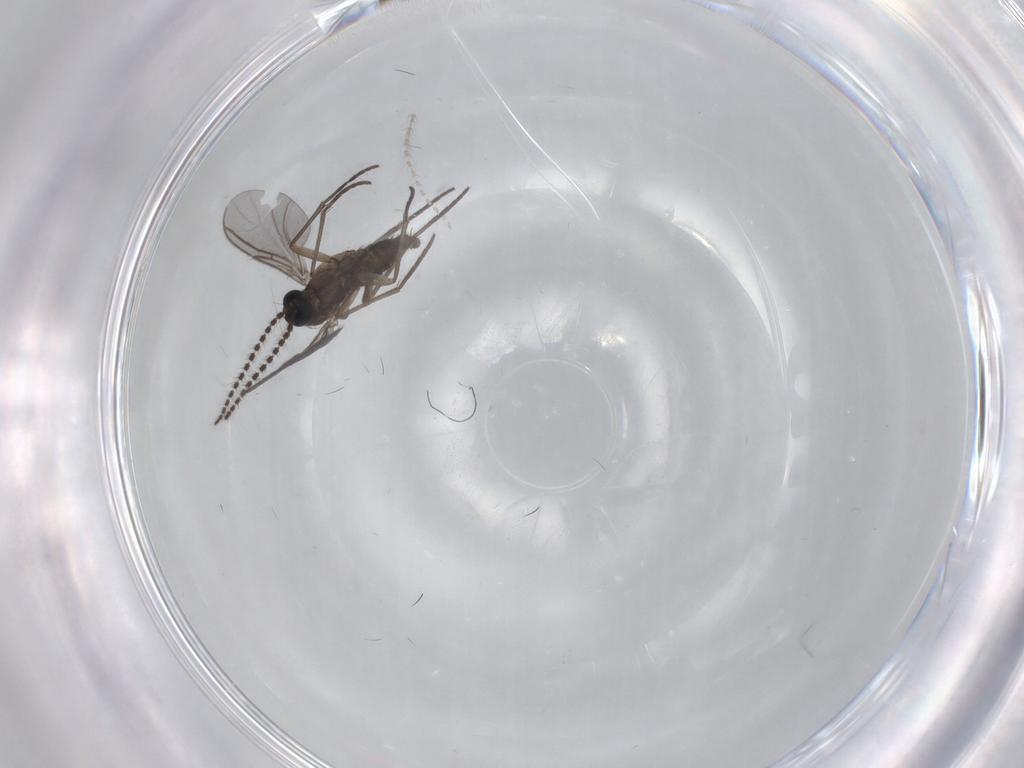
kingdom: Animalia
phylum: Arthropoda
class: Insecta
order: Diptera
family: Sciaridae
